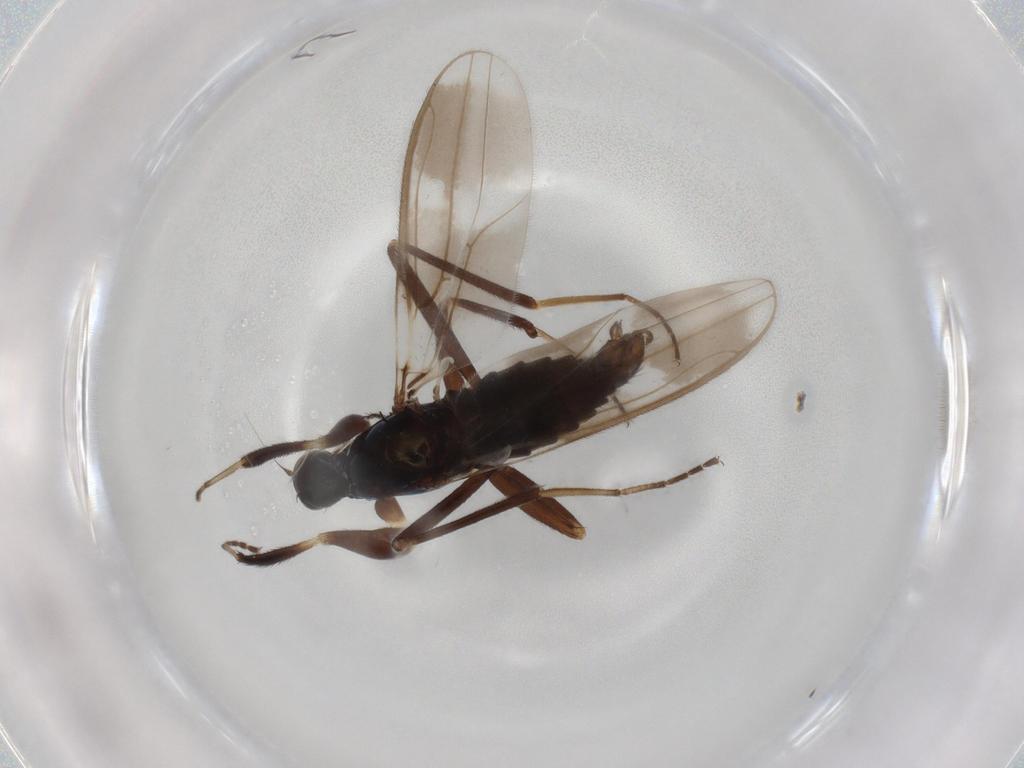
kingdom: Animalia
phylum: Arthropoda
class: Insecta
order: Diptera
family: Hybotidae
